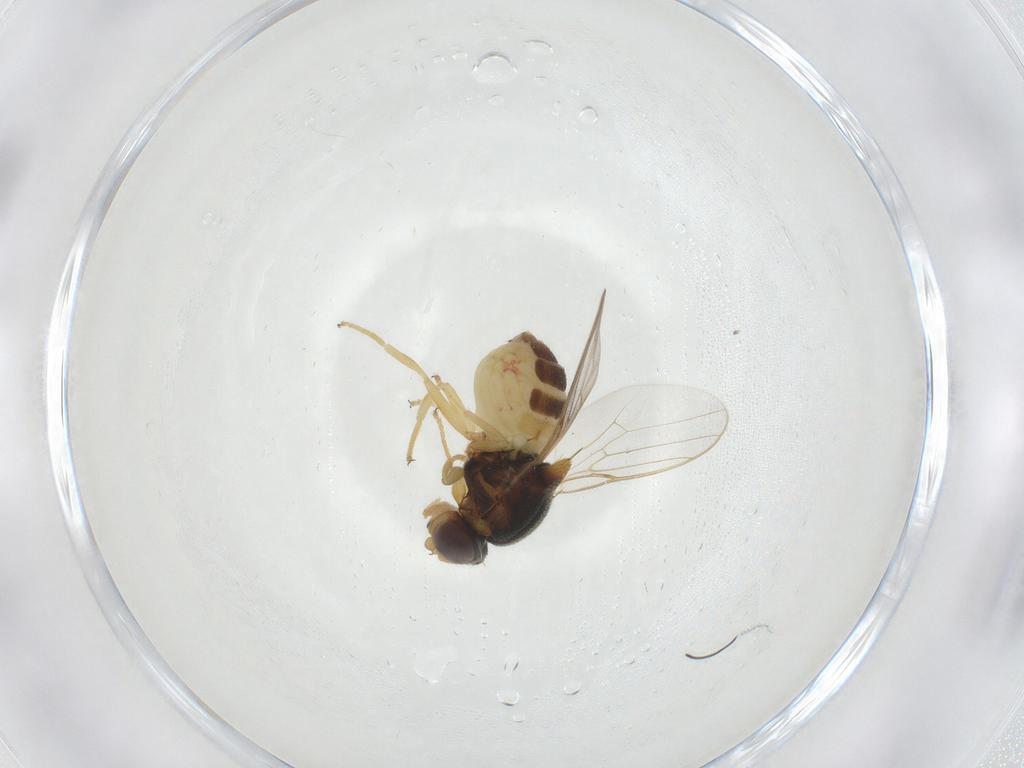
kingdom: Animalia
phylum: Arthropoda
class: Insecta
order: Diptera
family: Chloropidae
